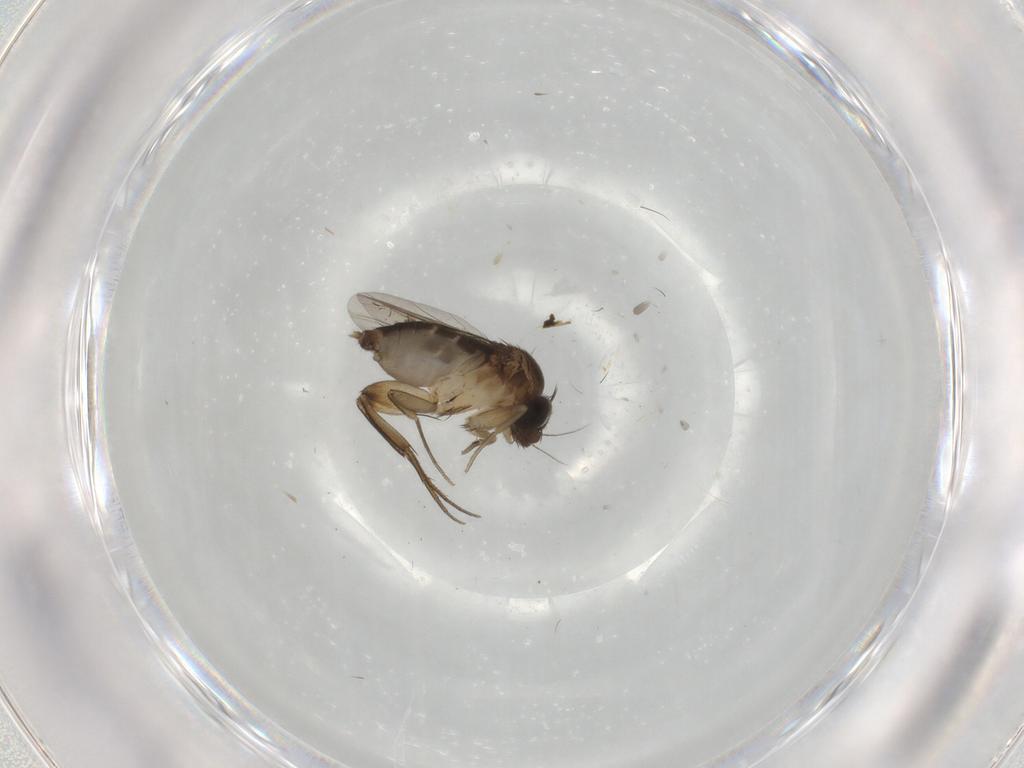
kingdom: Animalia
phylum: Arthropoda
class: Insecta
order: Diptera
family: Phoridae
